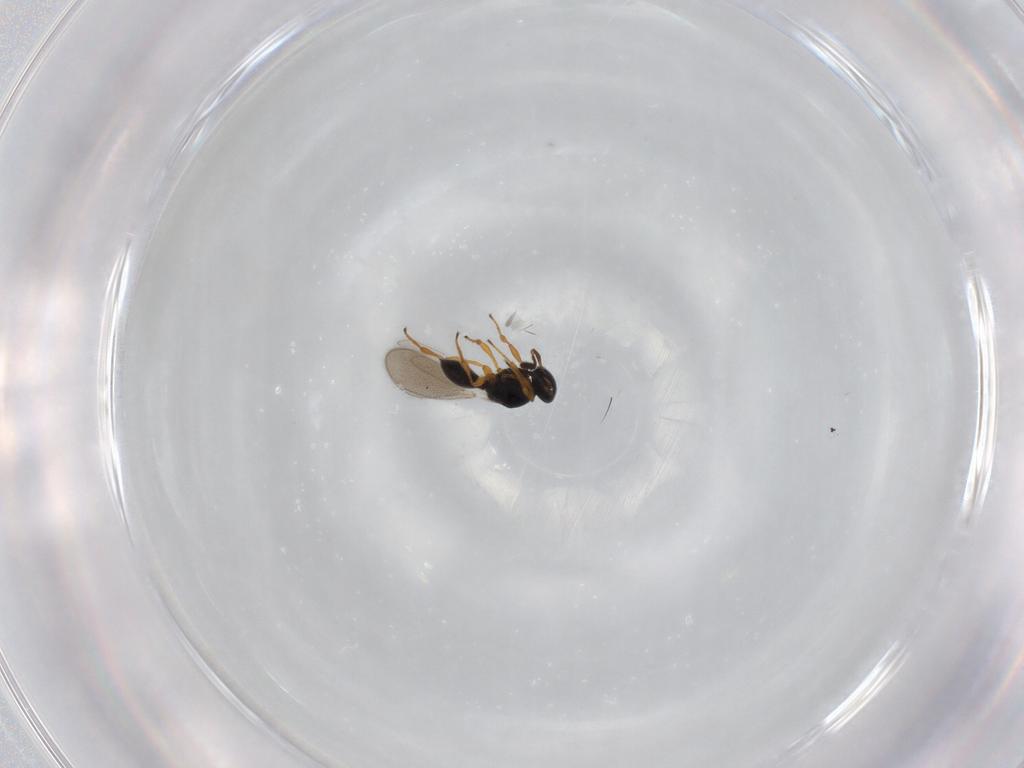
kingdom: Animalia
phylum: Arthropoda
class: Insecta
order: Hymenoptera
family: Platygastridae
